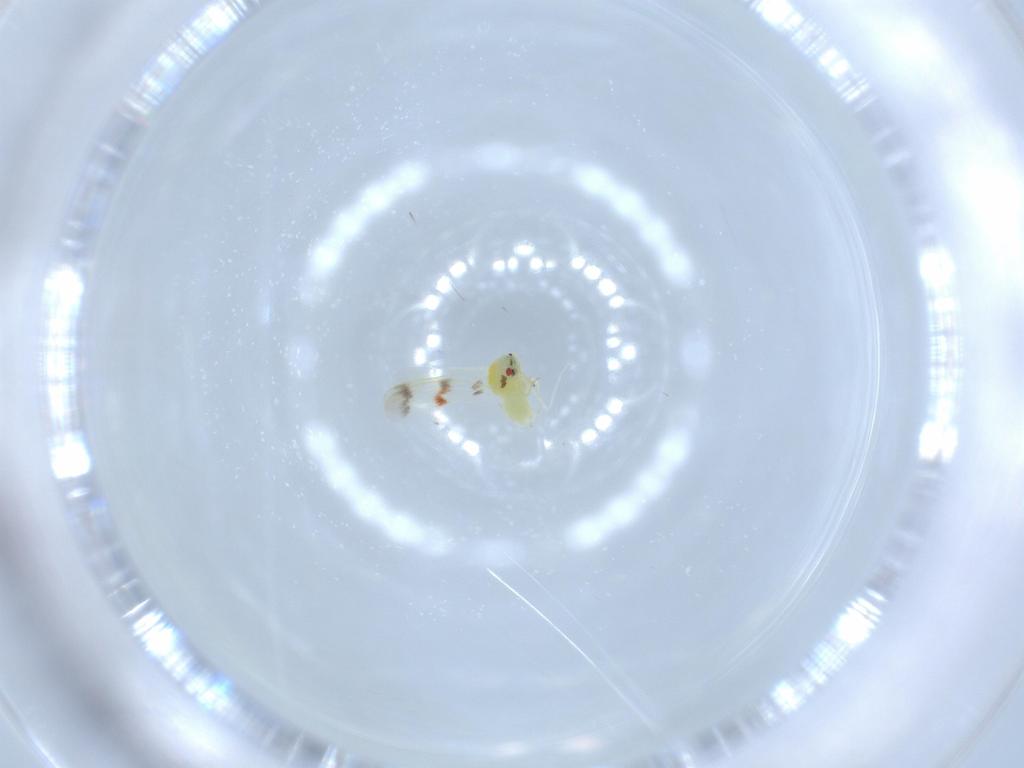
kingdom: Animalia
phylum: Arthropoda
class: Insecta
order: Hemiptera
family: Aleyrodidae
